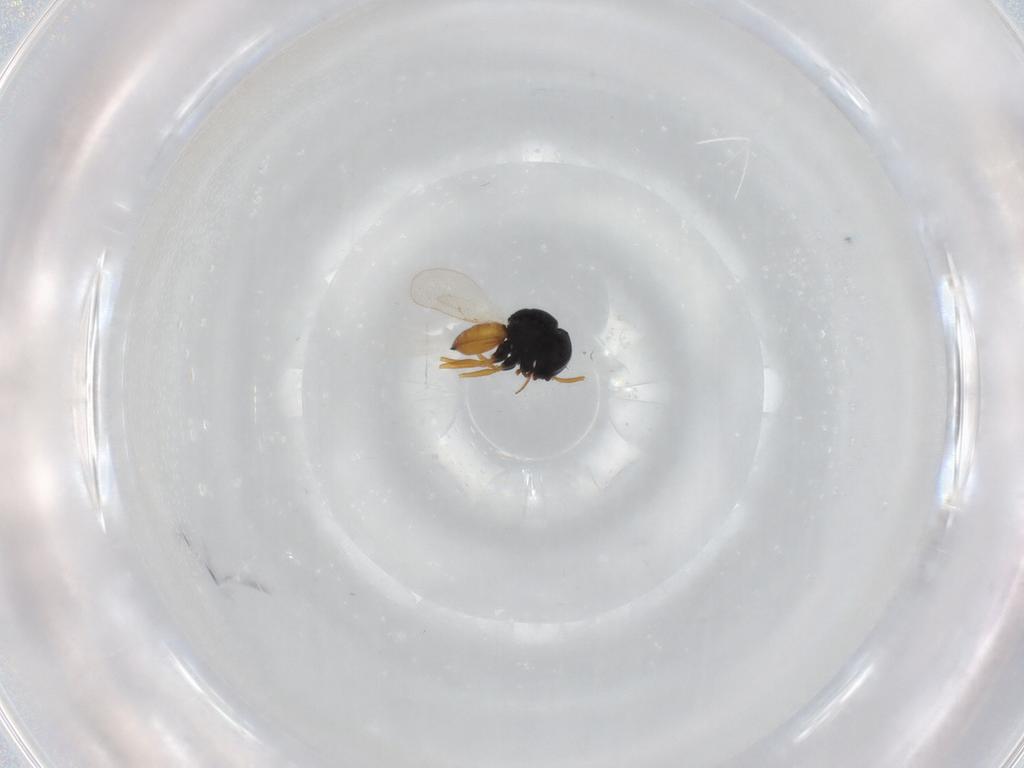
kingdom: Animalia
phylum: Arthropoda
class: Insecta
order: Hymenoptera
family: Scelionidae
